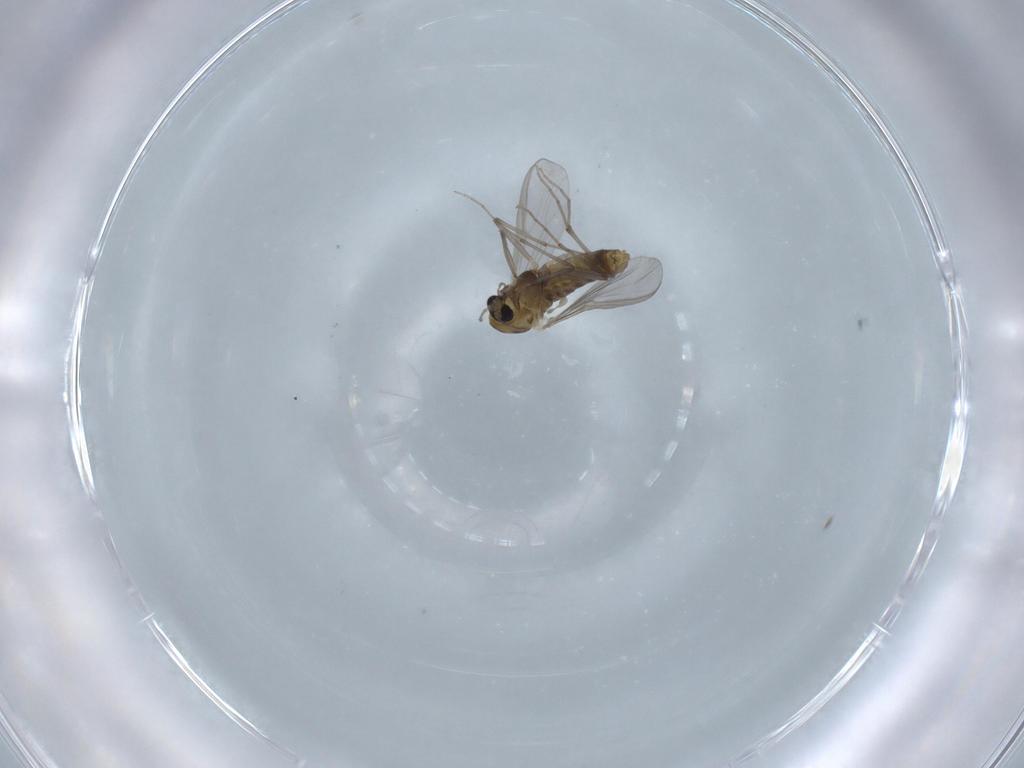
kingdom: Animalia
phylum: Arthropoda
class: Insecta
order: Diptera
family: Chironomidae
